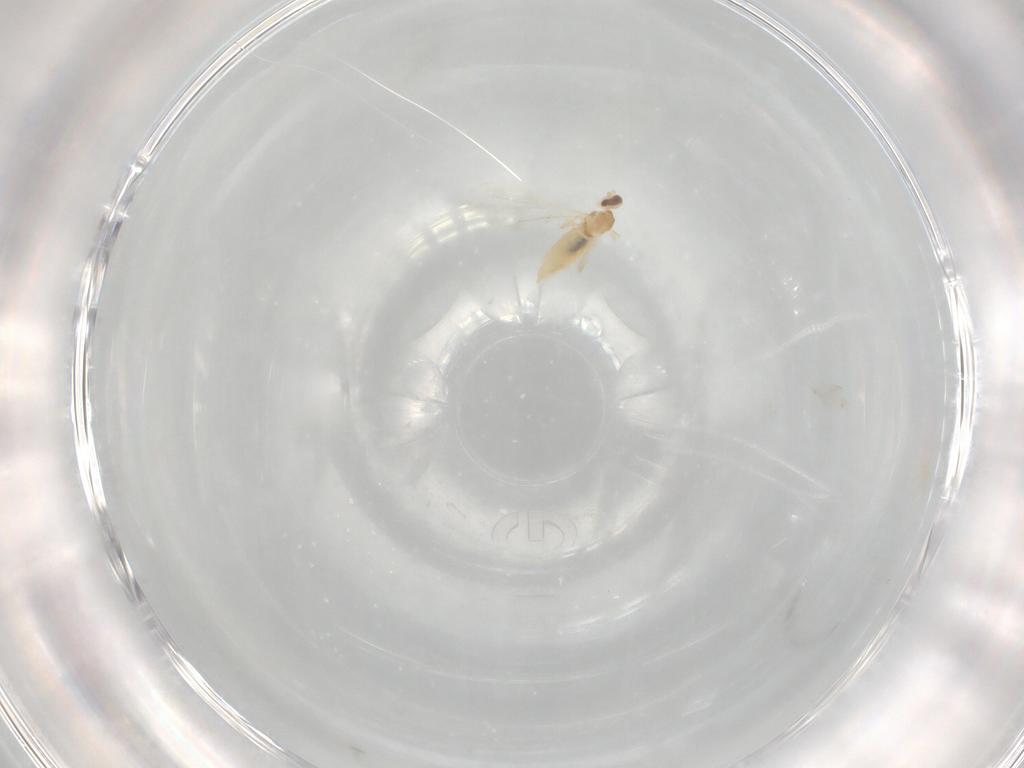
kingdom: Animalia
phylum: Arthropoda
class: Insecta
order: Diptera
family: Cecidomyiidae
